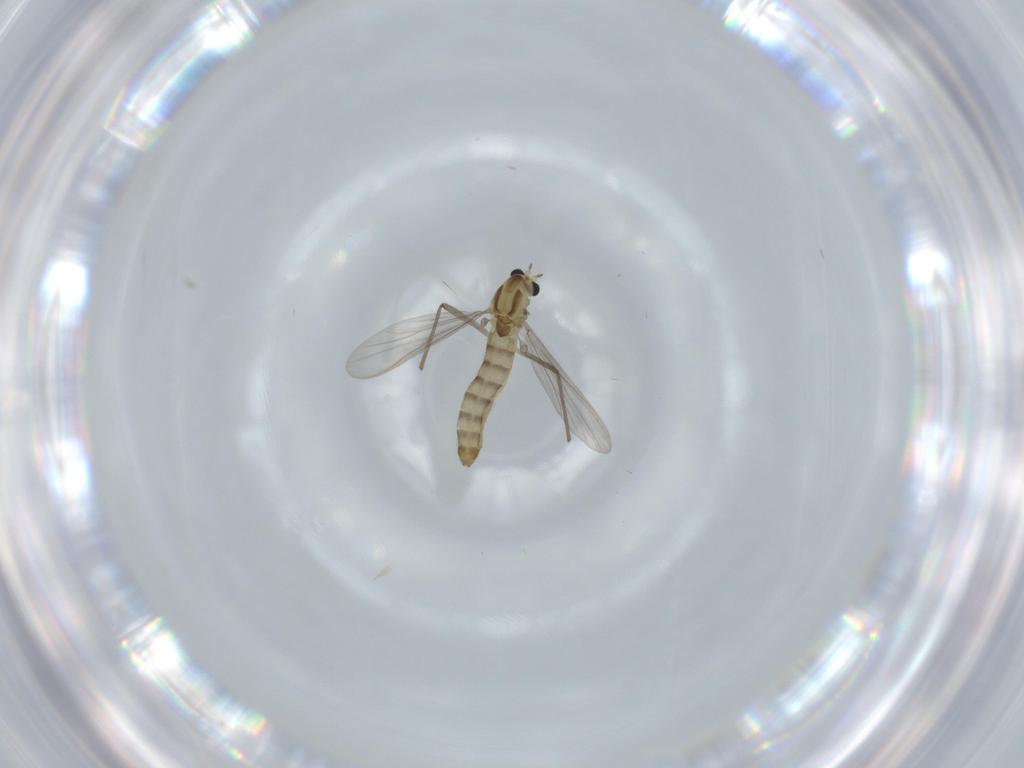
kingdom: Animalia
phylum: Arthropoda
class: Insecta
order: Diptera
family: Chironomidae
